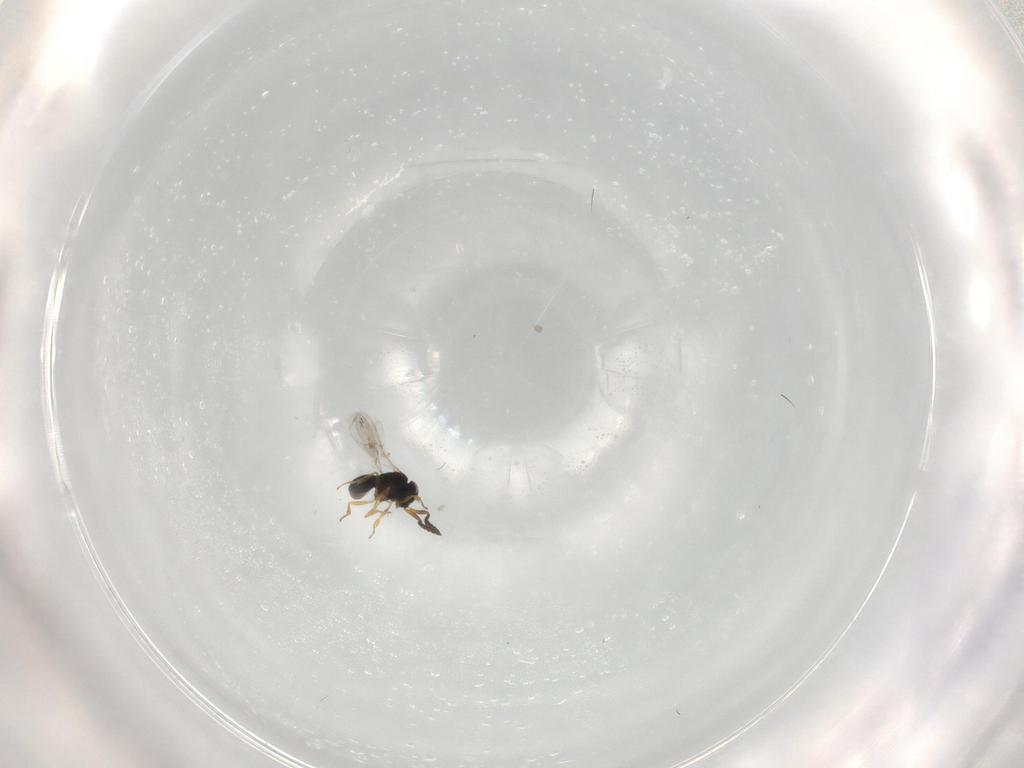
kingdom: Animalia
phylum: Arthropoda
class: Insecta
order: Hymenoptera
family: Scelionidae
